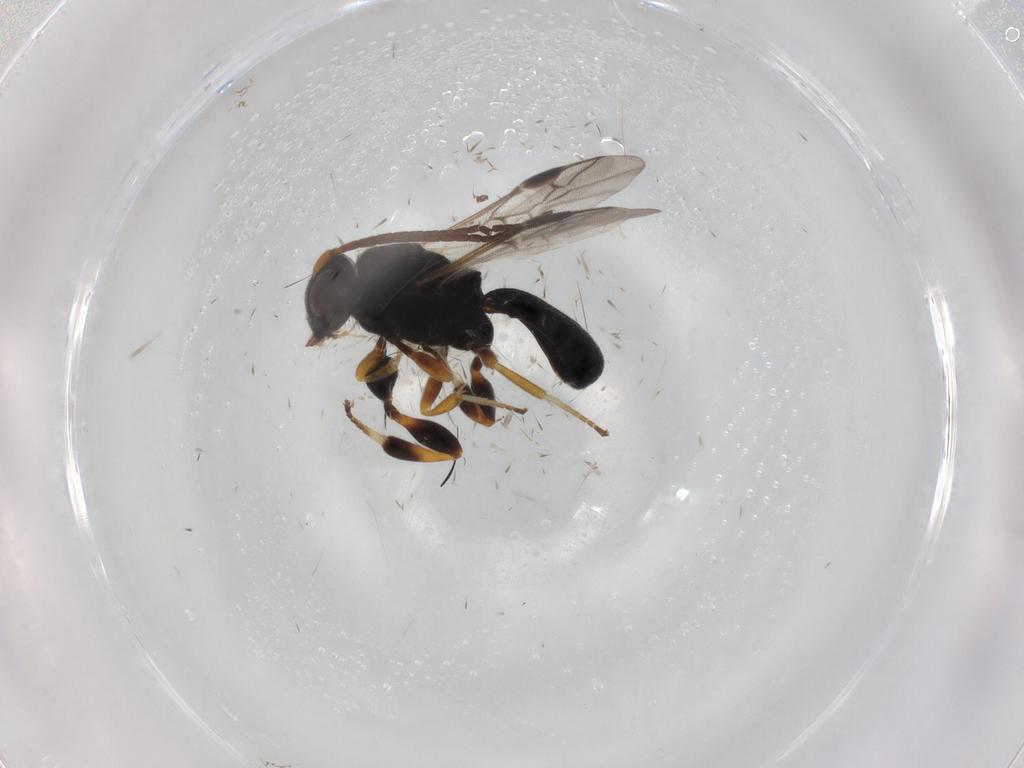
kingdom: Animalia
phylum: Arthropoda
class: Insecta
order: Hymenoptera
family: Braconidae
